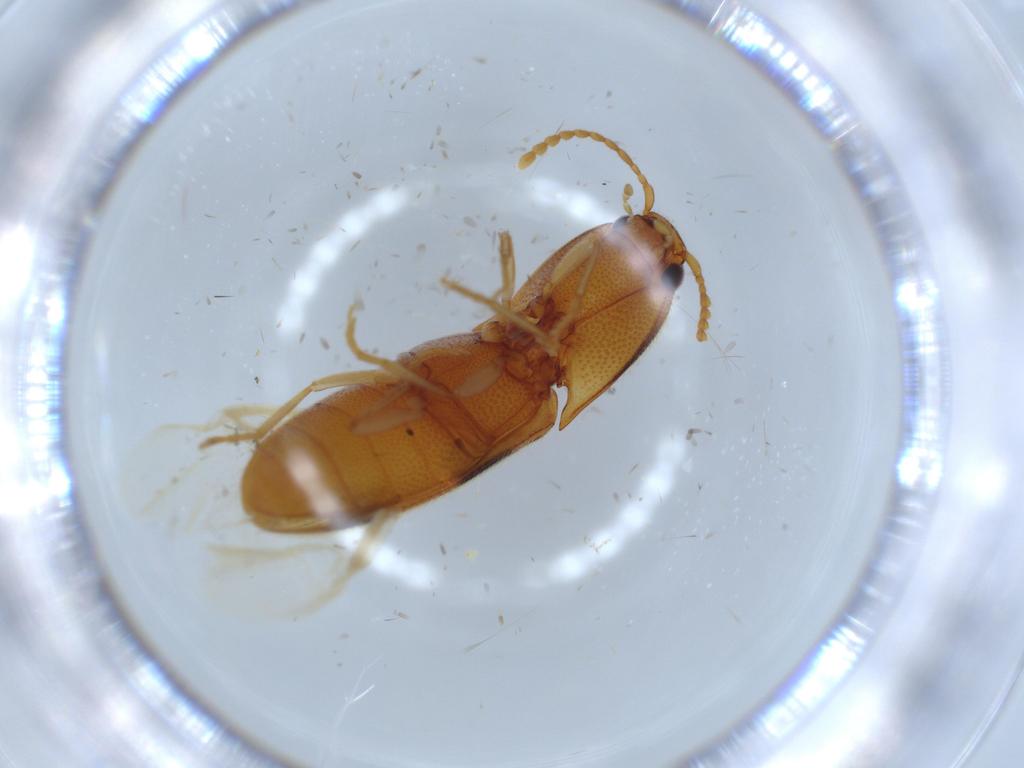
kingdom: Animalia
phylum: Arthropoda
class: Insecta
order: Coleoptera
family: Elateridae
